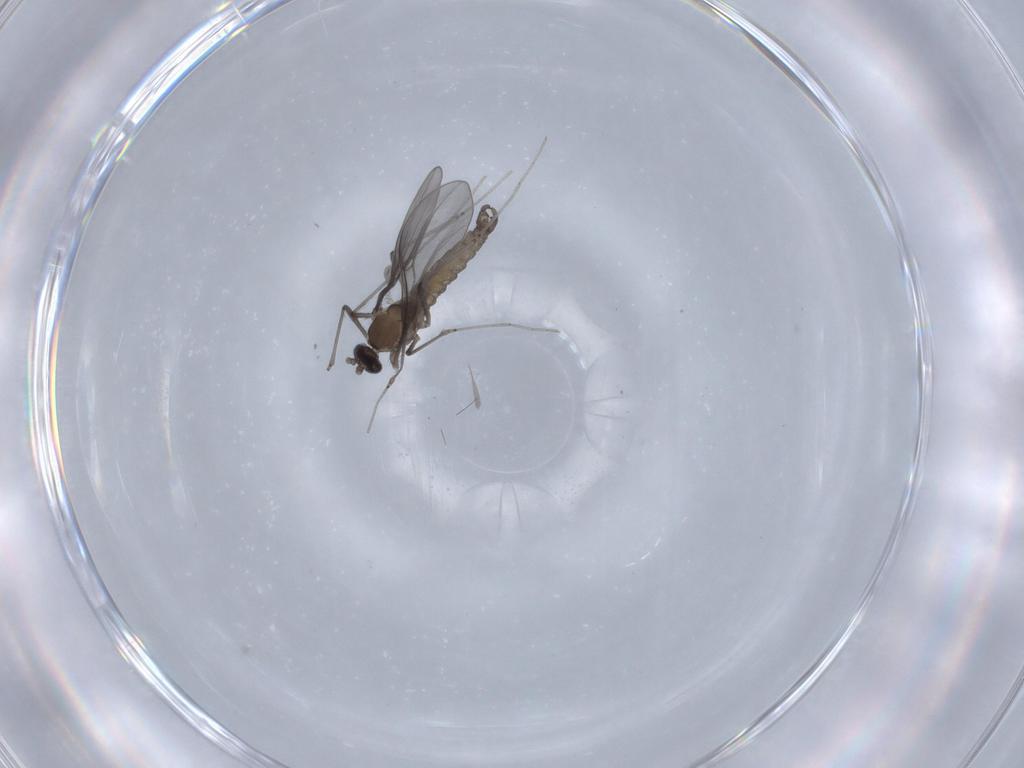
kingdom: Animalia
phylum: Arthropoda
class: Insecta
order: Diptera
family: Cecidomyiidae
